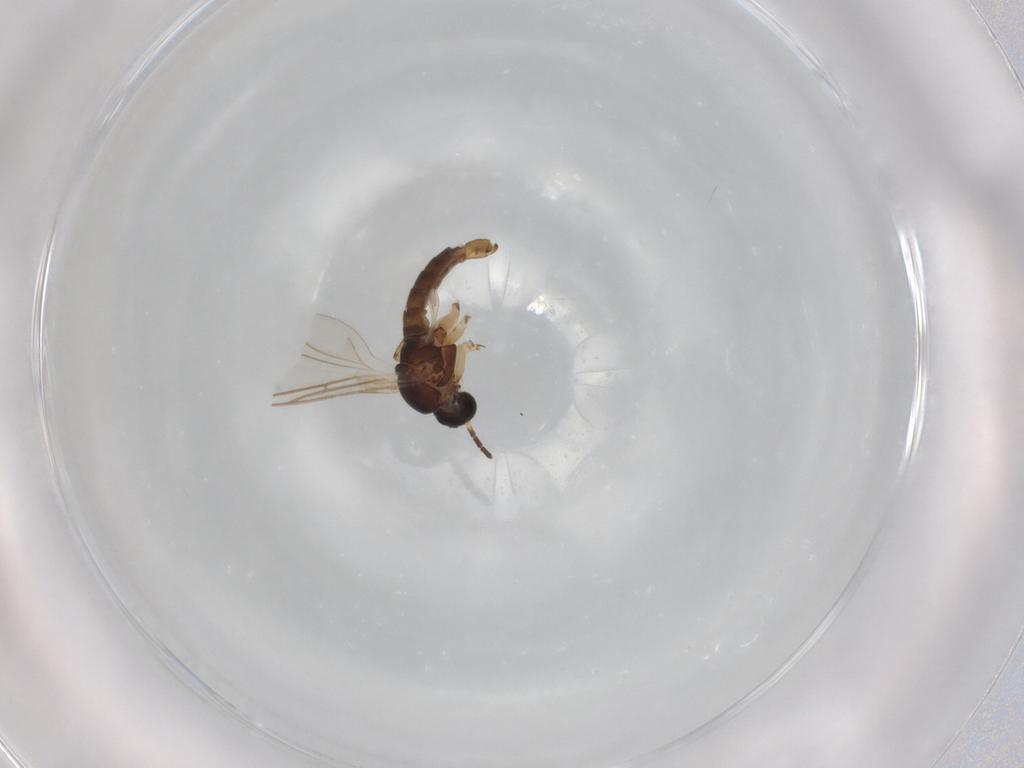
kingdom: Animalia
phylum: Arthropoda
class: Insecta
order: Diptera
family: Sciaridae
